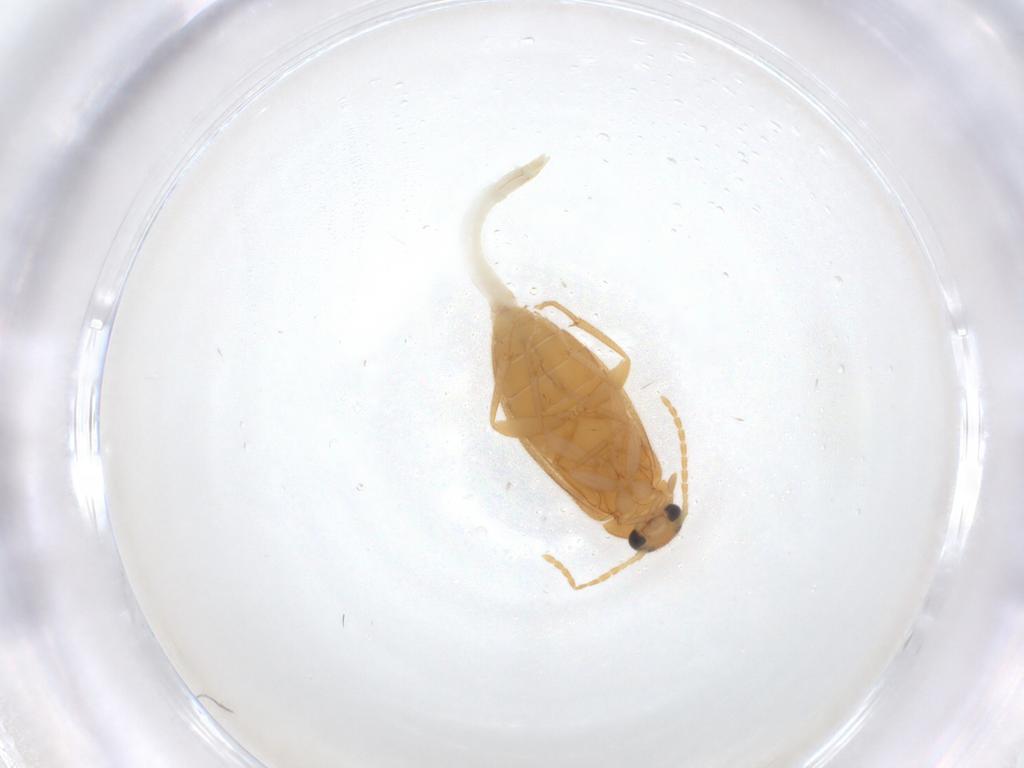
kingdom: Animalia
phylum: Arthropoda
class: Insecta
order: Coleoptera
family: Scraptiidae
